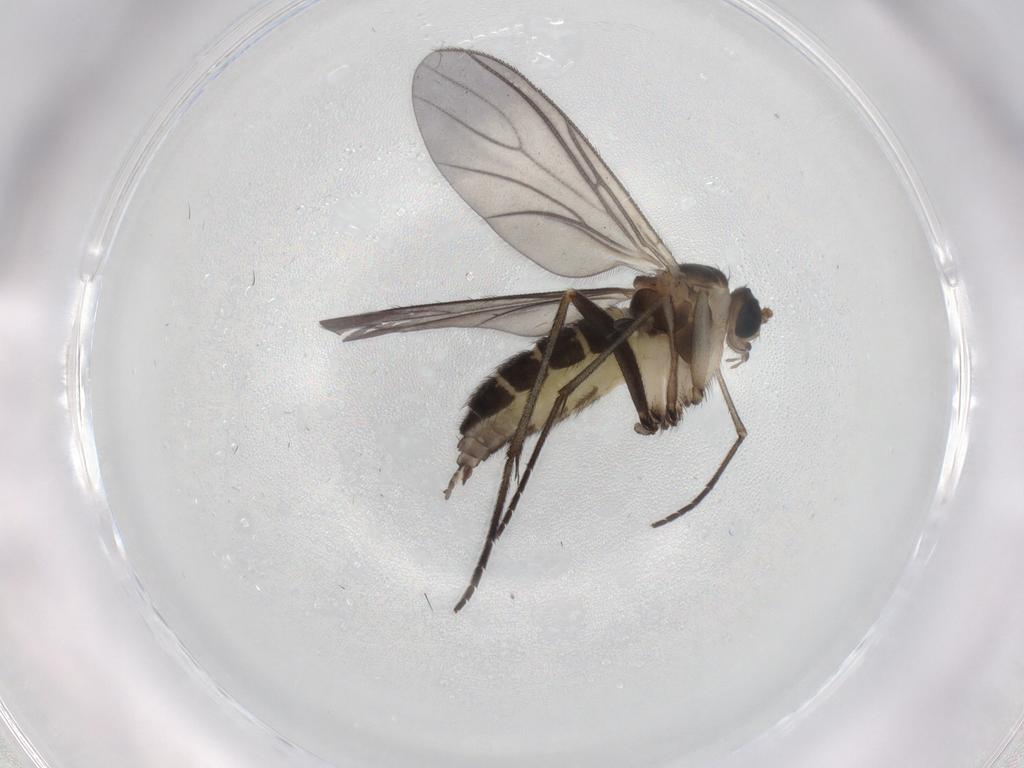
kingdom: Animalia
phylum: Arthropoda
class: Insecta
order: Diptera
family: Sciaridae
